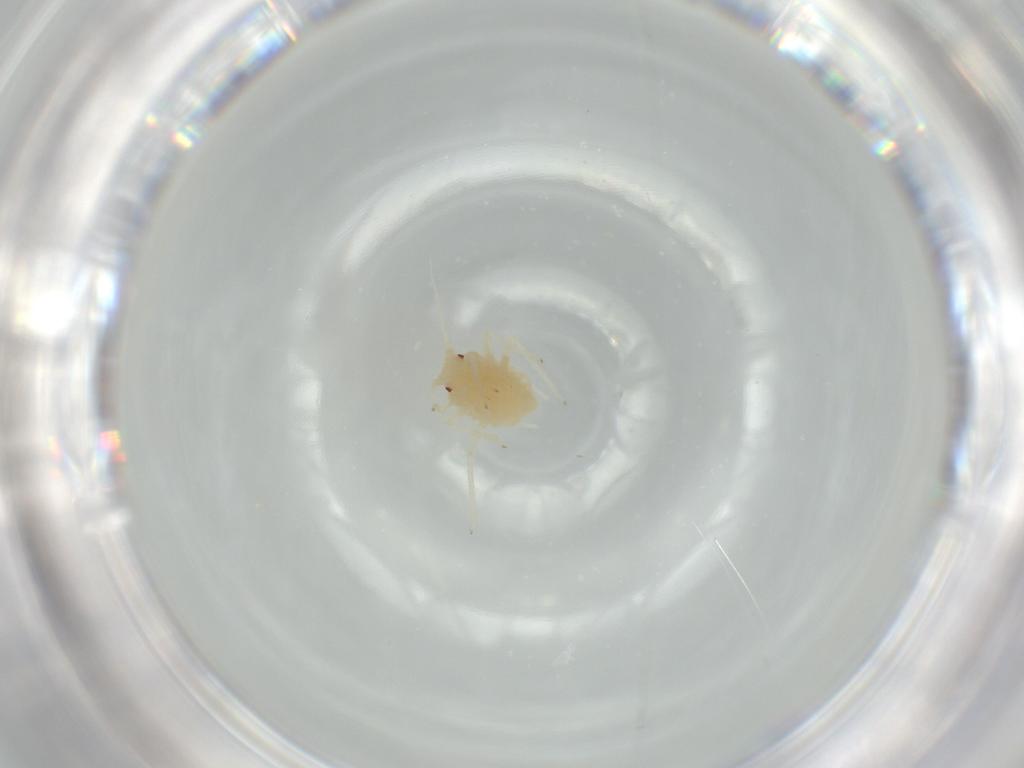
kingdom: Animalia
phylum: Arthropoda
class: Insecta
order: Hemiptera
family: Aphididae
